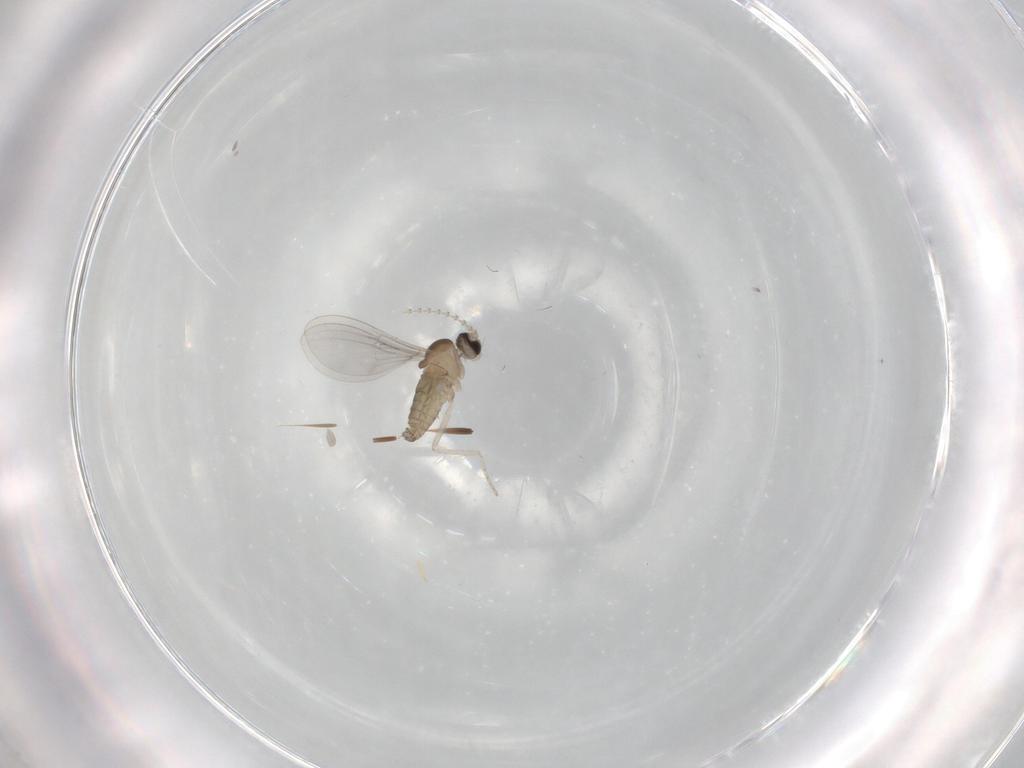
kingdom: Animalia
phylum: Arthropoda
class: Insecta
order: Diptera
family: Cecidomyiidae
